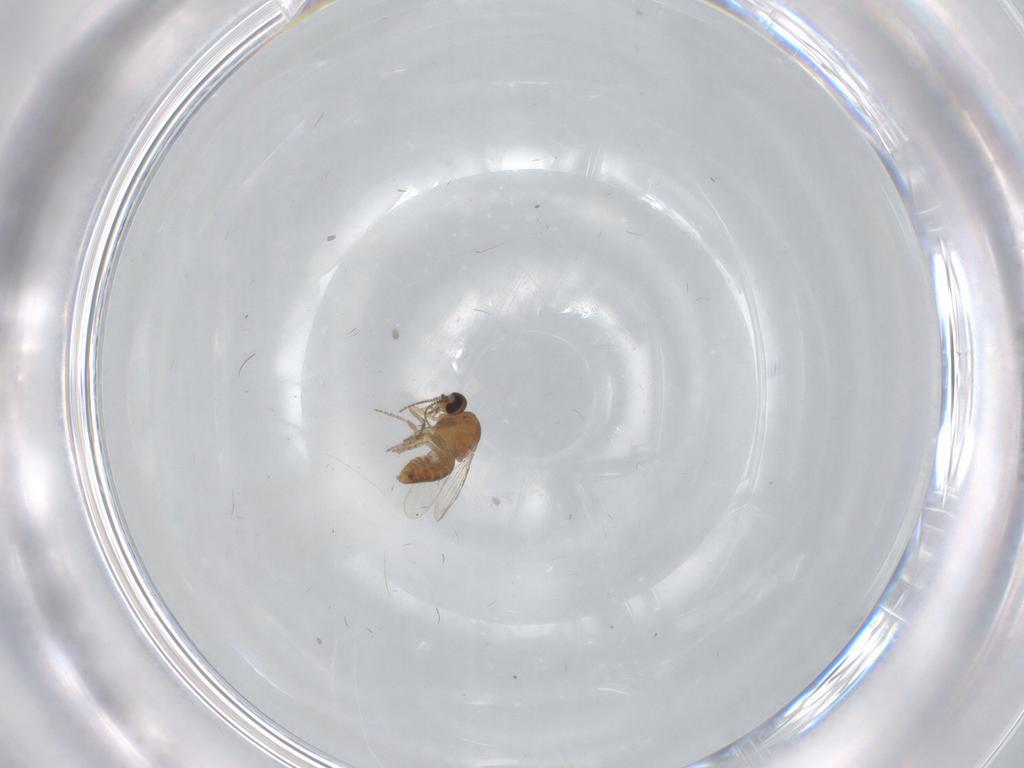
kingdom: Animalia
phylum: Arthropoda
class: Insecta
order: Diptera
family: Ceratopogonidae
